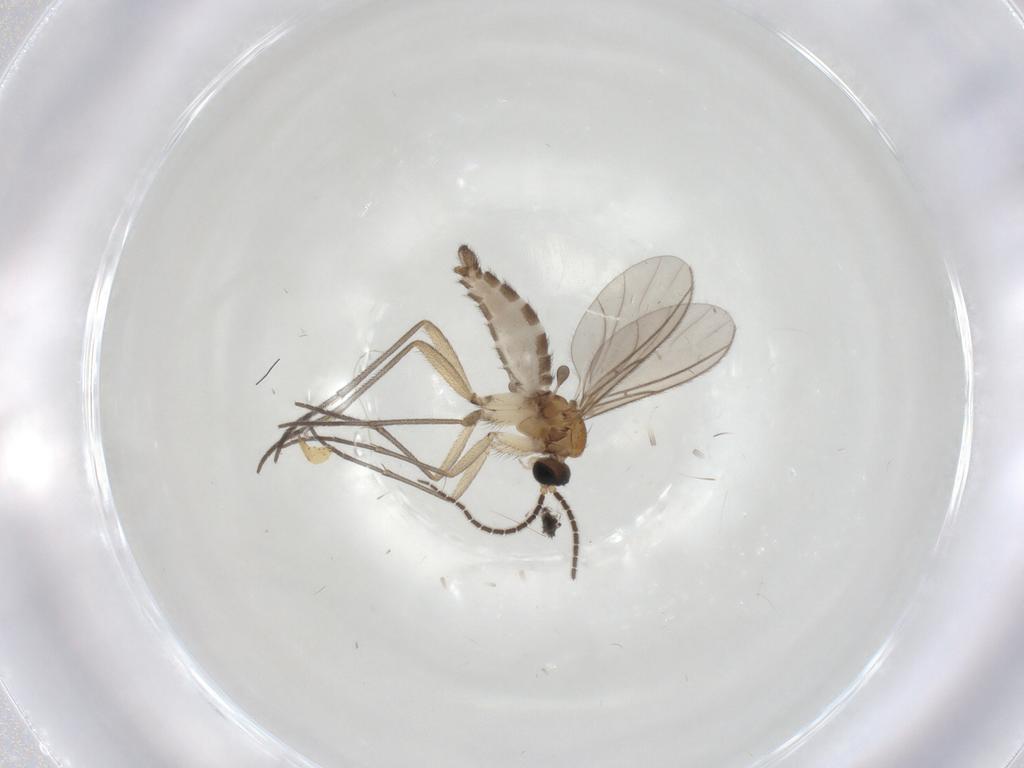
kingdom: Animalia
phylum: Arthropoda
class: Insecta
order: Diptera
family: Sciaridae
